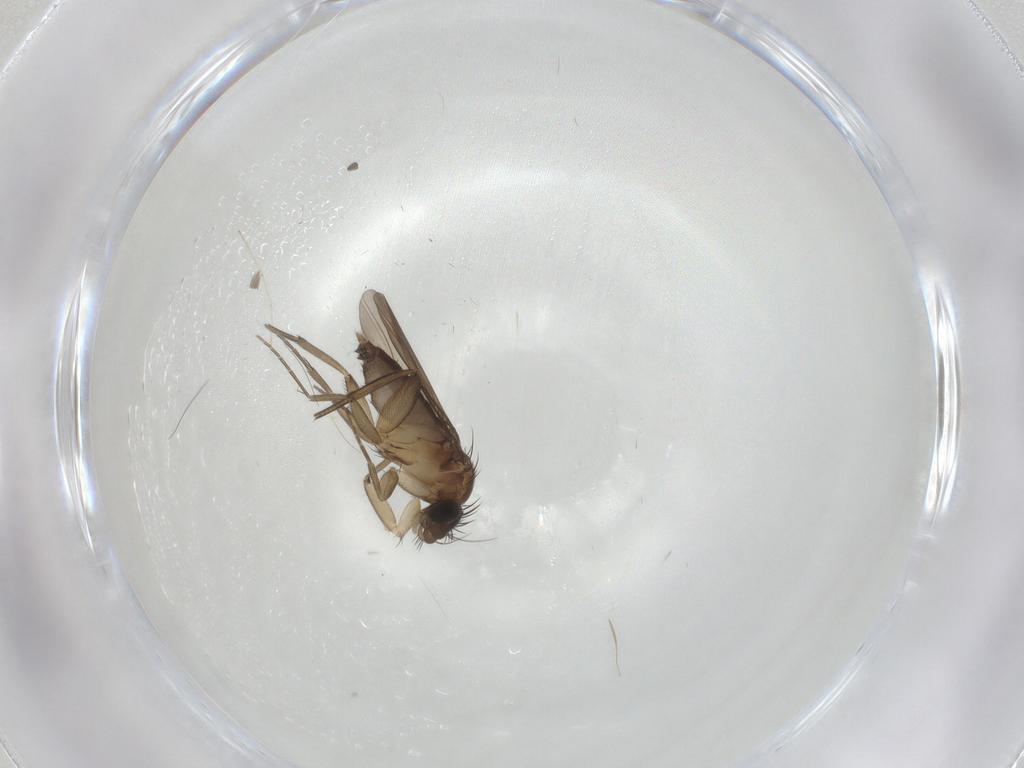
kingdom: Animalia
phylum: Arthropoda
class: Insecta
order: Diptera
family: Phoridae
